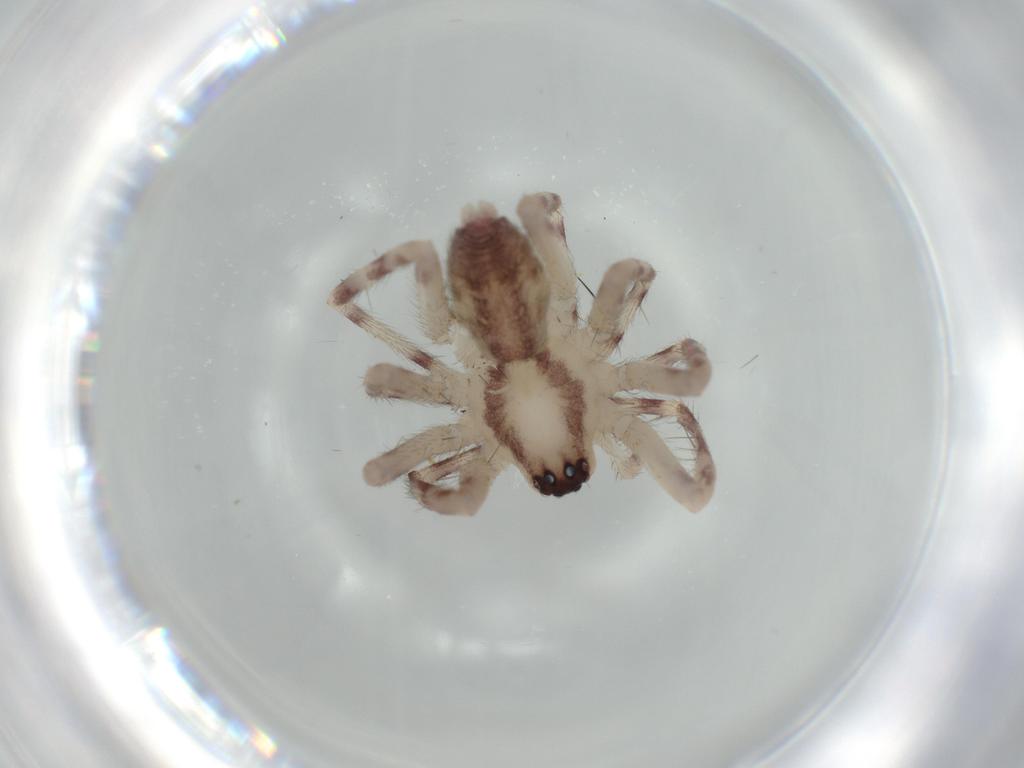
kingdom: Animalia
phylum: Arthropoda
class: Arachnida
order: Araneae
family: Corinnidae
